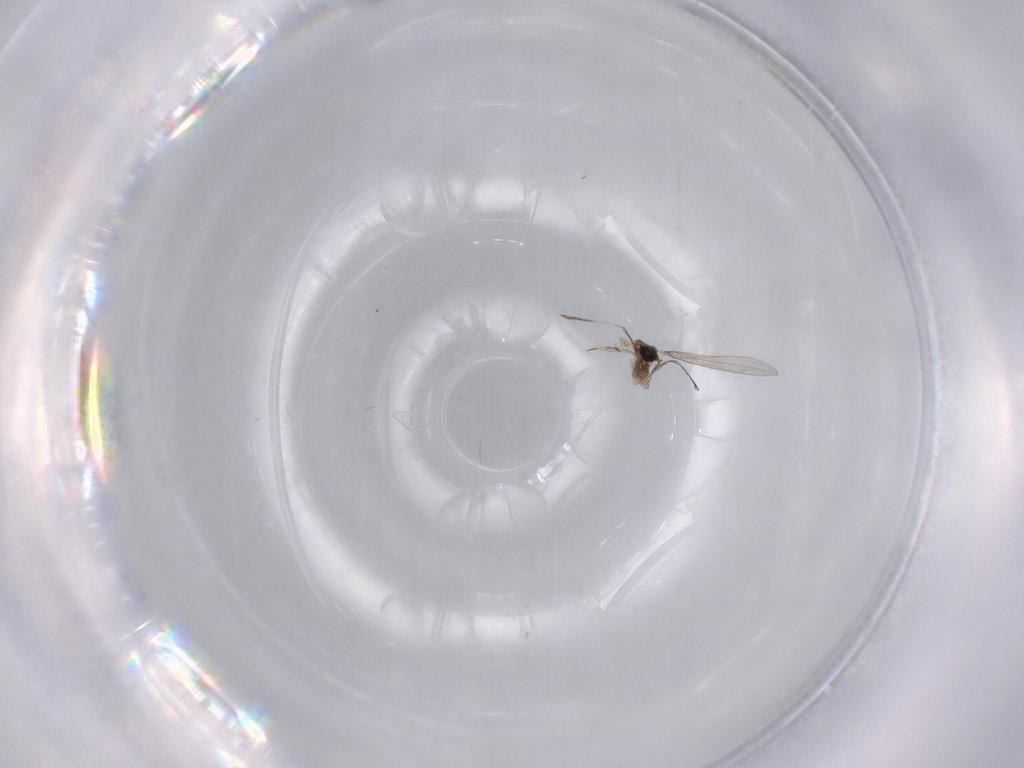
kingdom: Animalia
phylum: Arthropoda
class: Insecta
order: Diptera
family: Cecidomyiidae
